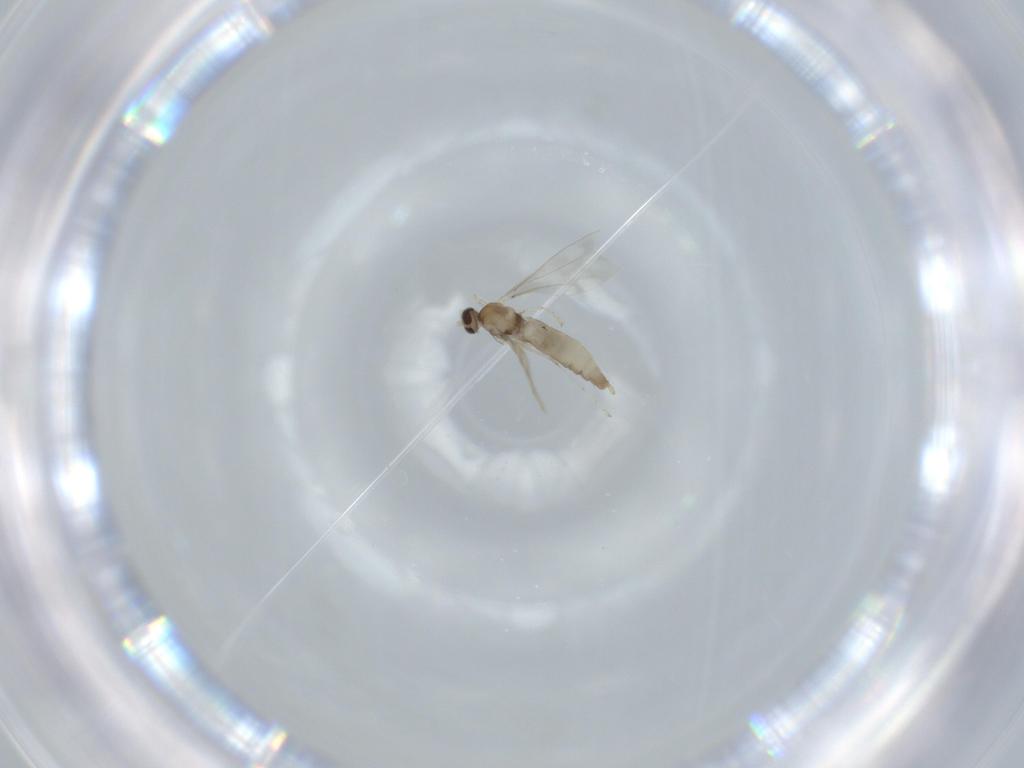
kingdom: Animalia
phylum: Arthropoda
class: Insecta
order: Diptera
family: Cecidomyiidae
